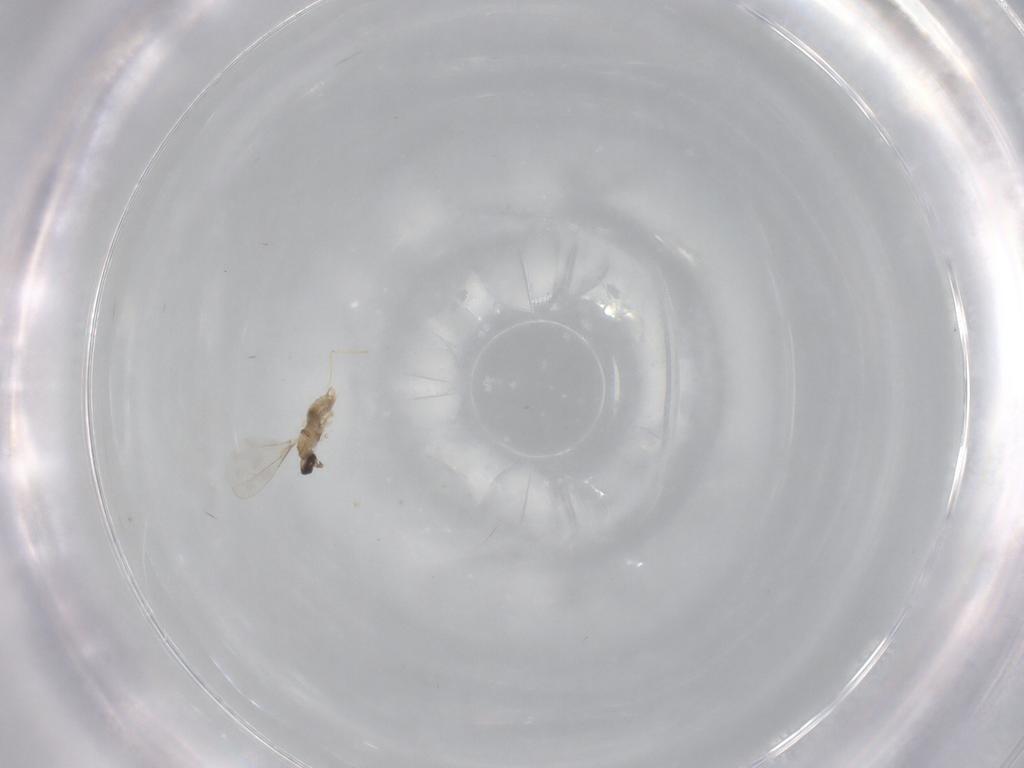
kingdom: Animalia
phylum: Arthropoda
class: Insecta
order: Diptera
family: Cecidomyiidae
